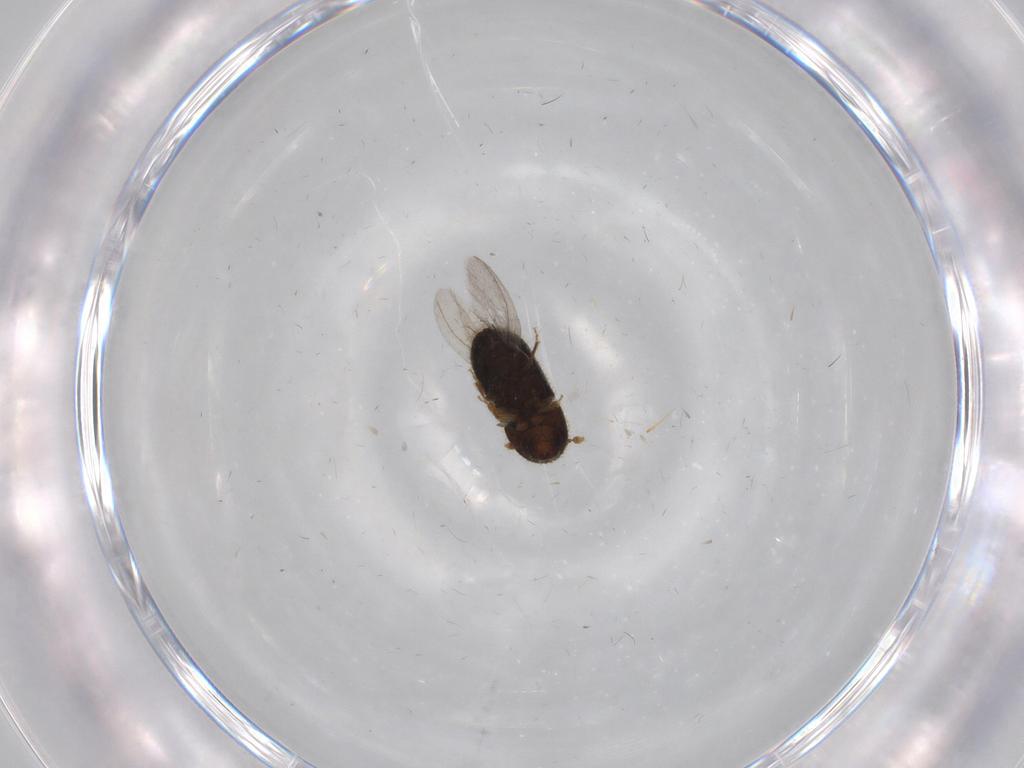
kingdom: Animalia
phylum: Arthropoda
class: Insecta
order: Coleoptera
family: Curculionidae
